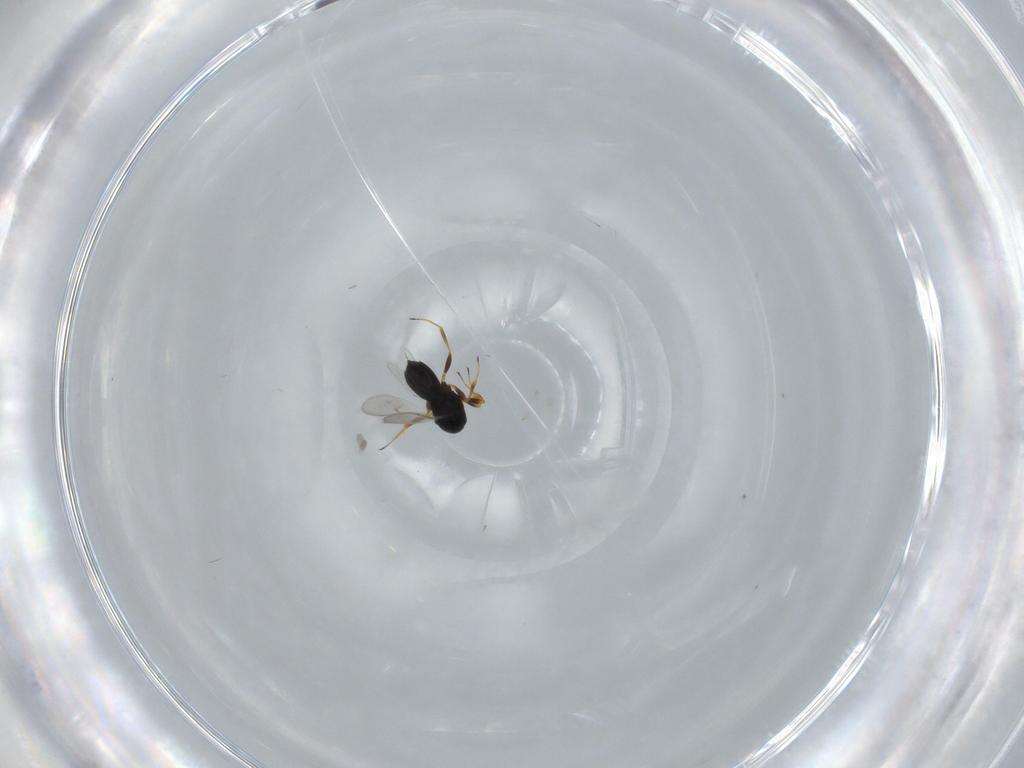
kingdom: Animalia
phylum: Arthropoda
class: Insecta
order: Hymenoptera
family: Scelionidae
